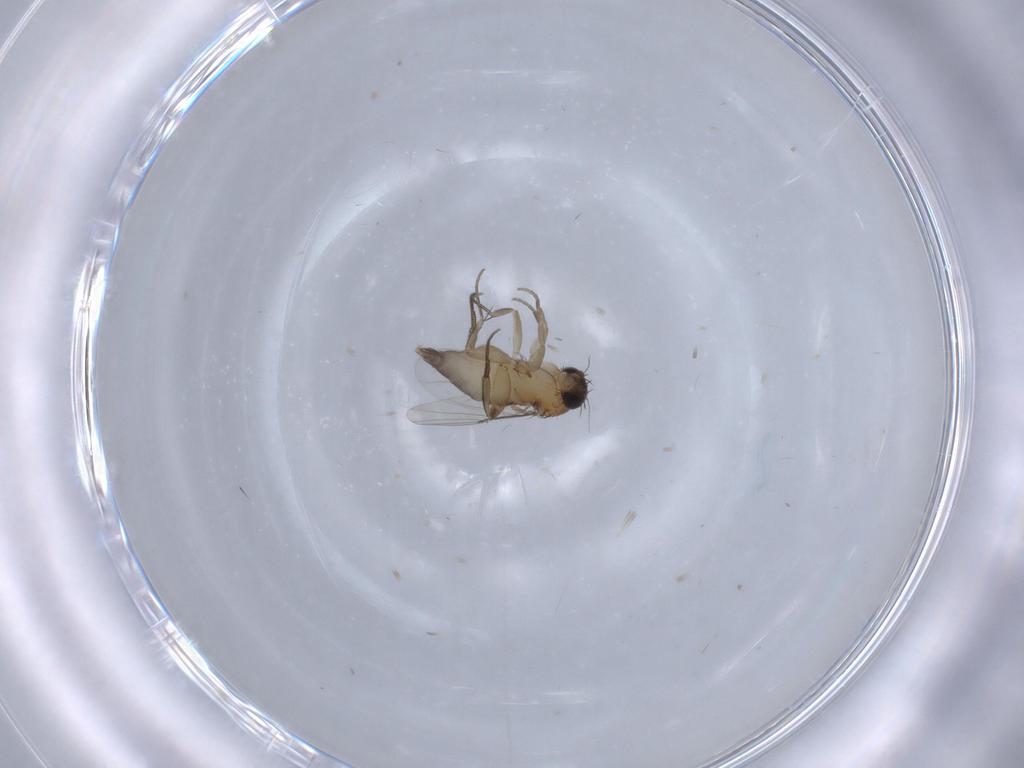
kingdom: Animalia
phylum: Arthropoda
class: Insecta
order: Diptera
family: Phoridae
